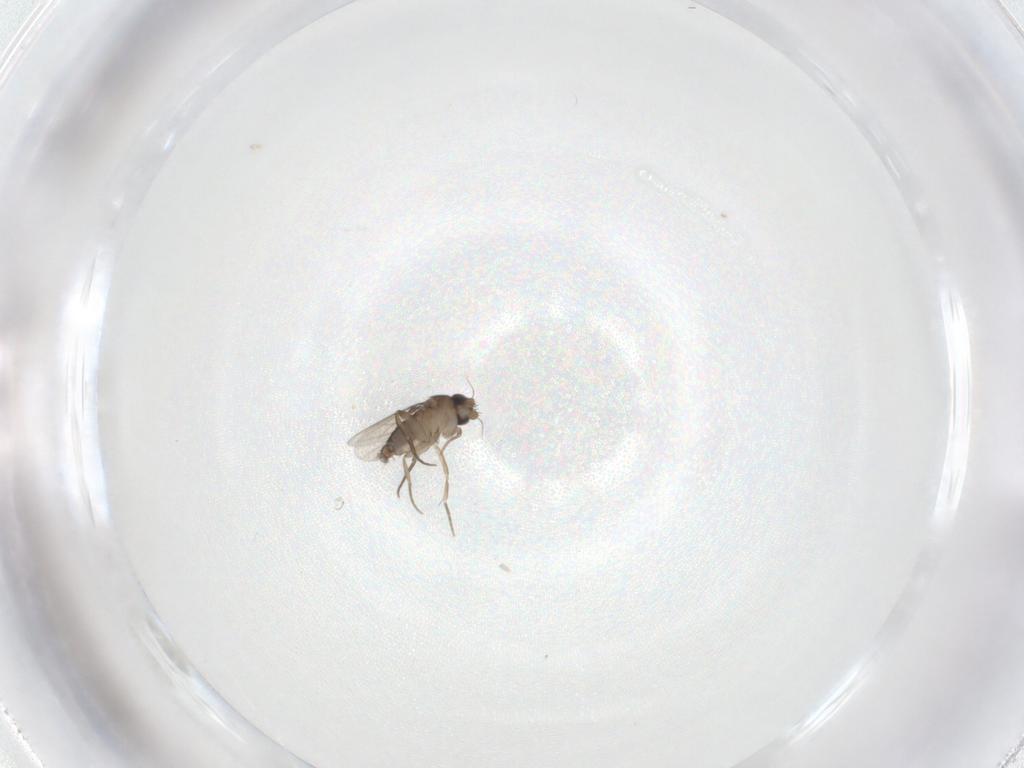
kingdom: Animalia
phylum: Arthropoda
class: Insecta
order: Diptera
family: Phoridae
